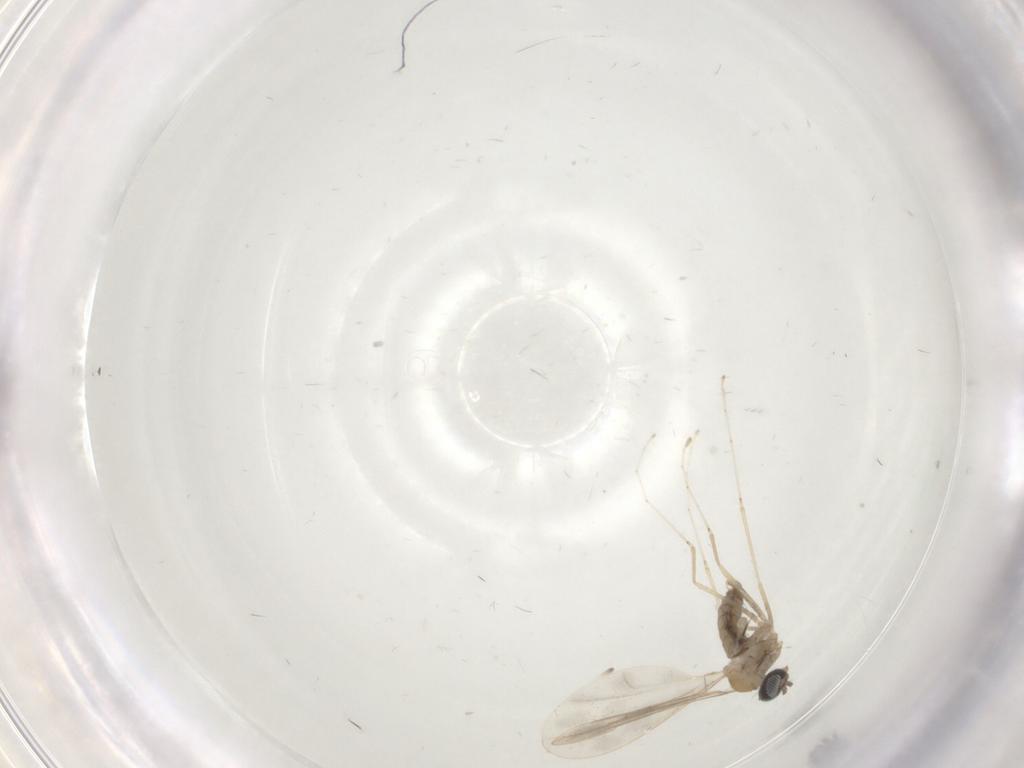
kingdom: Animalia
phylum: Arthropoda
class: Insecta
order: Diptera
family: Cecidomyiidae
